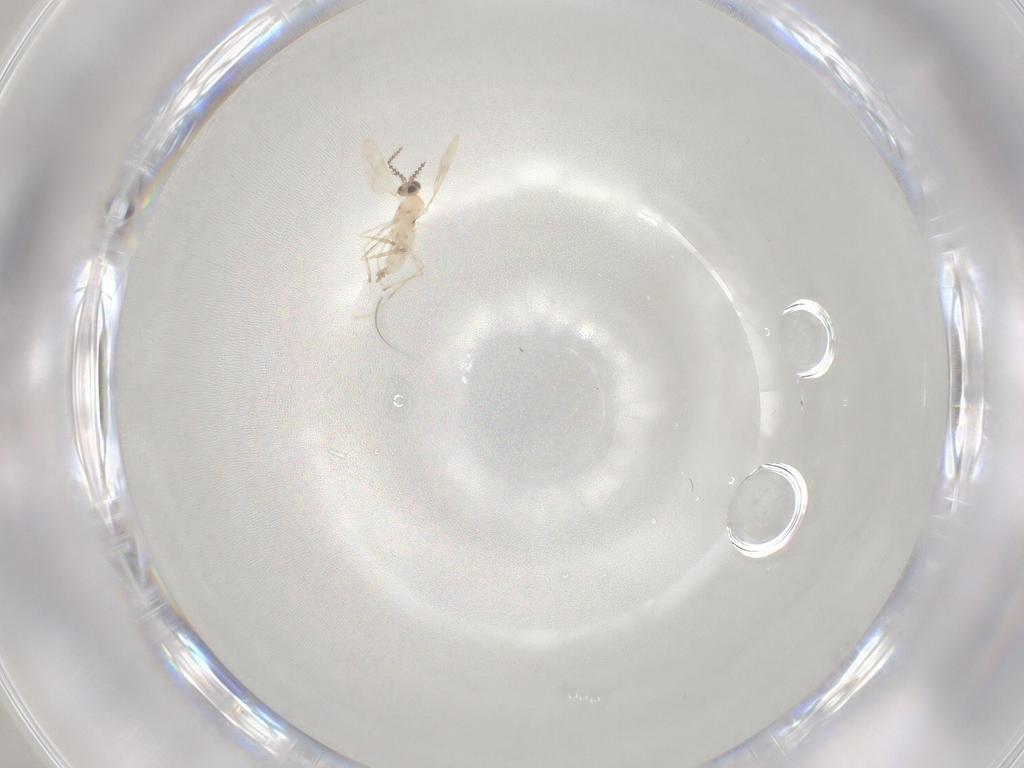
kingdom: Animalia
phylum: Arthropoda
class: Insecta
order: Diptera
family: Cecidomyiidae
